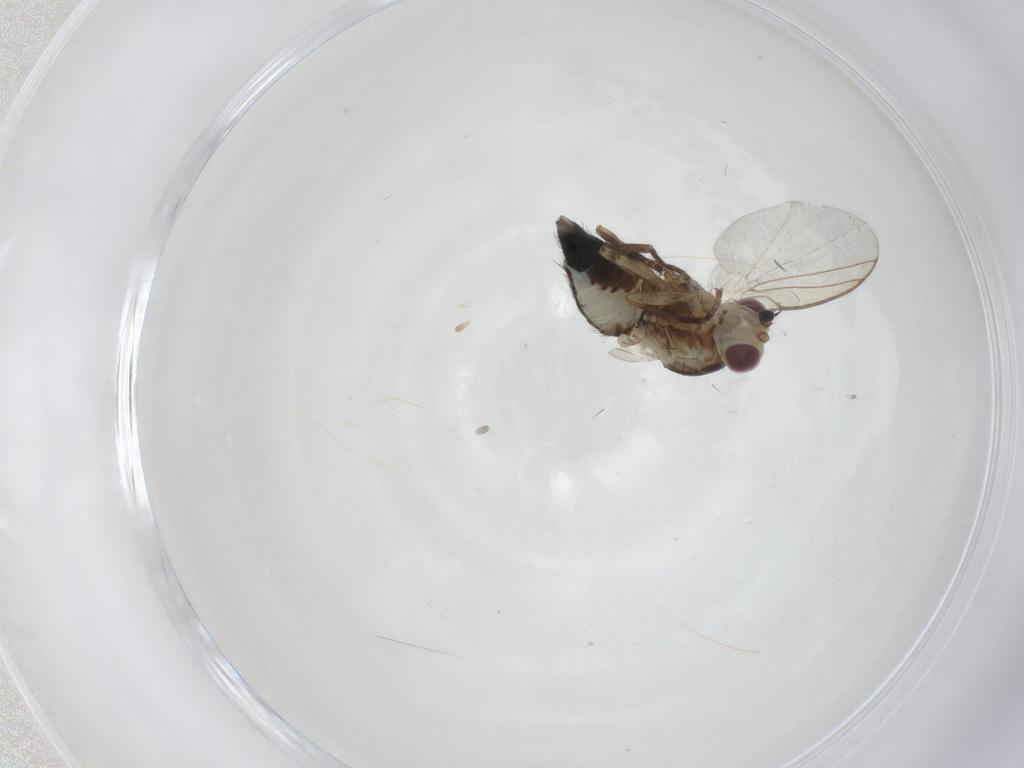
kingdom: Animalia
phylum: Arthropoda
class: Insecta
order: Diptera
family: Agromyzidae
